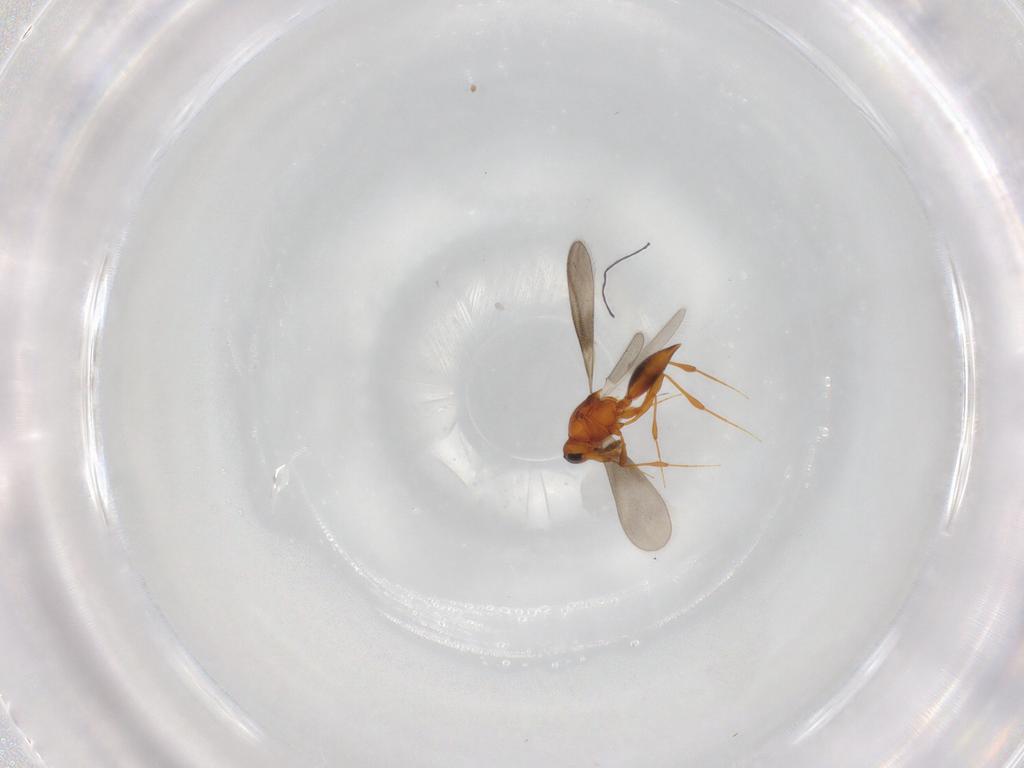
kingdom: Animalia
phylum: Arthropoda
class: Insecta
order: Hymenoptera
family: Platygastridae
